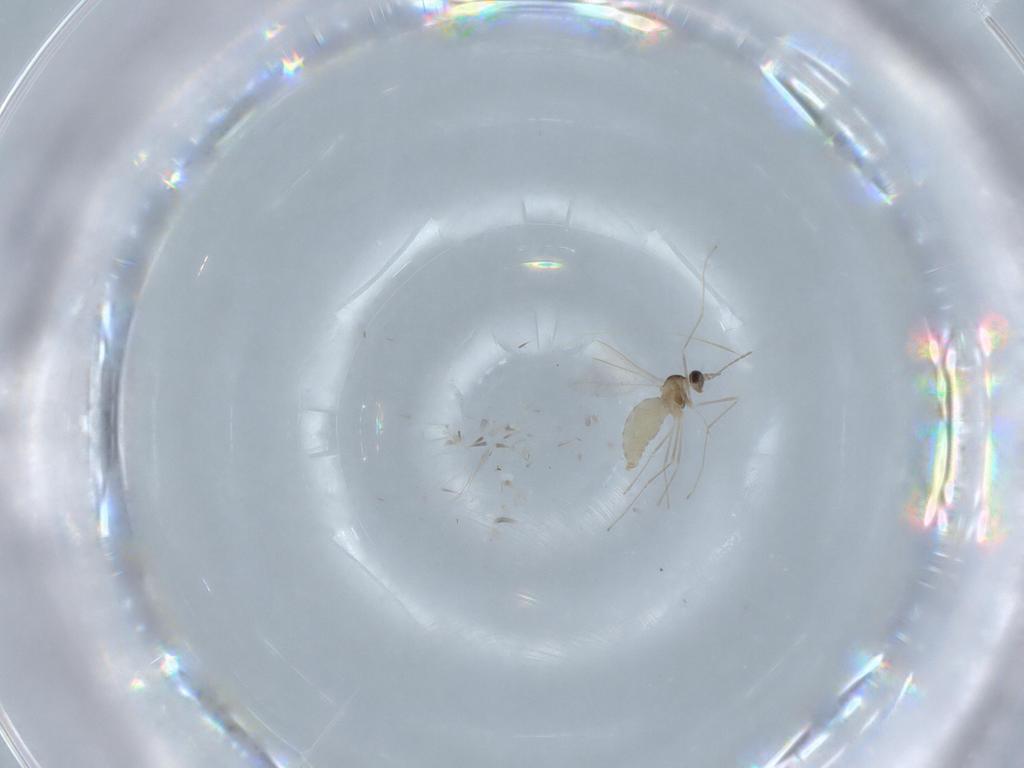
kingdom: Animalia
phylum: Arthropoda
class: Insecta
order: Diptera
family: Cecidomyiidae
